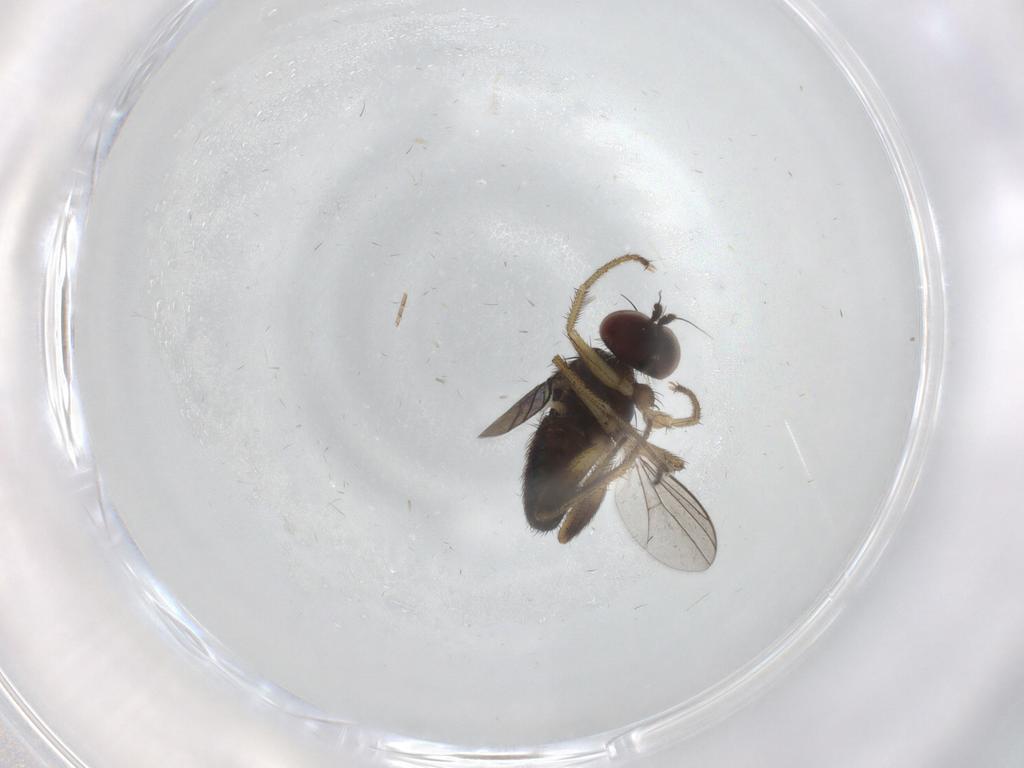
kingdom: Animalia
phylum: Arthropoda
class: Insecta
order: Diptera
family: Dolichopodidae
